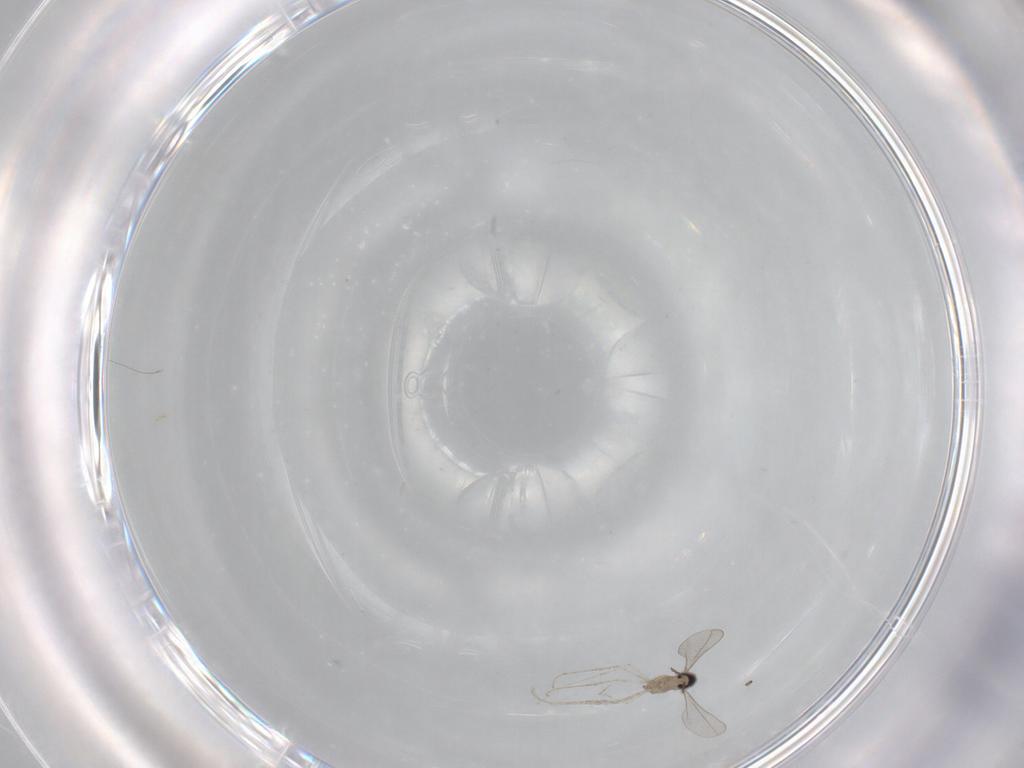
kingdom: Animalia
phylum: Arthropoda
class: Insecta
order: Diptera
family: Cecidomyiidae
